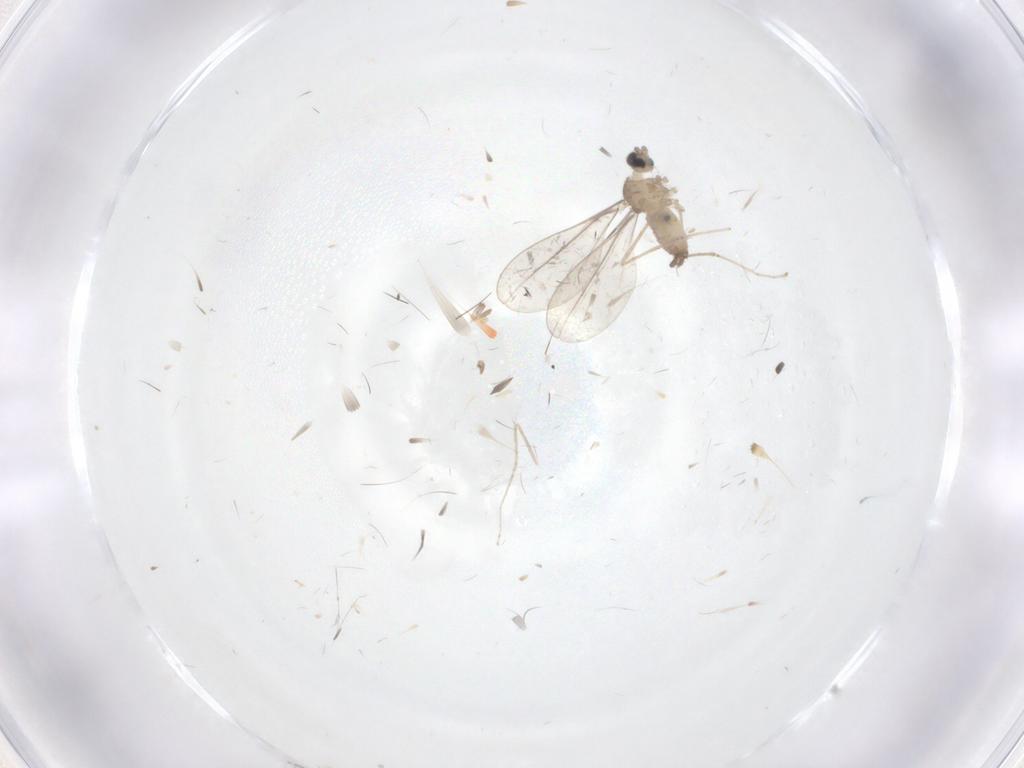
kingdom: Animalia
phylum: Arthropoda
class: Insecta
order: Diptera
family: Cecidomyiidae
